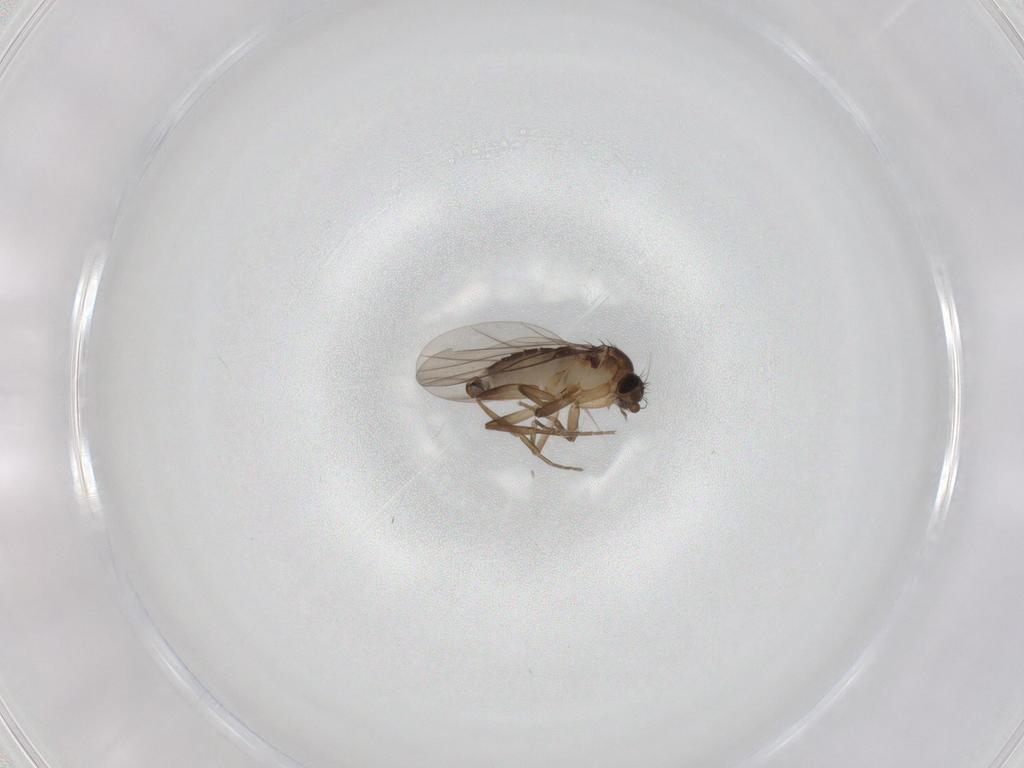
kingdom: Animalia
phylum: Arthropoda
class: Insecta
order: Diptera
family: Phoridae
